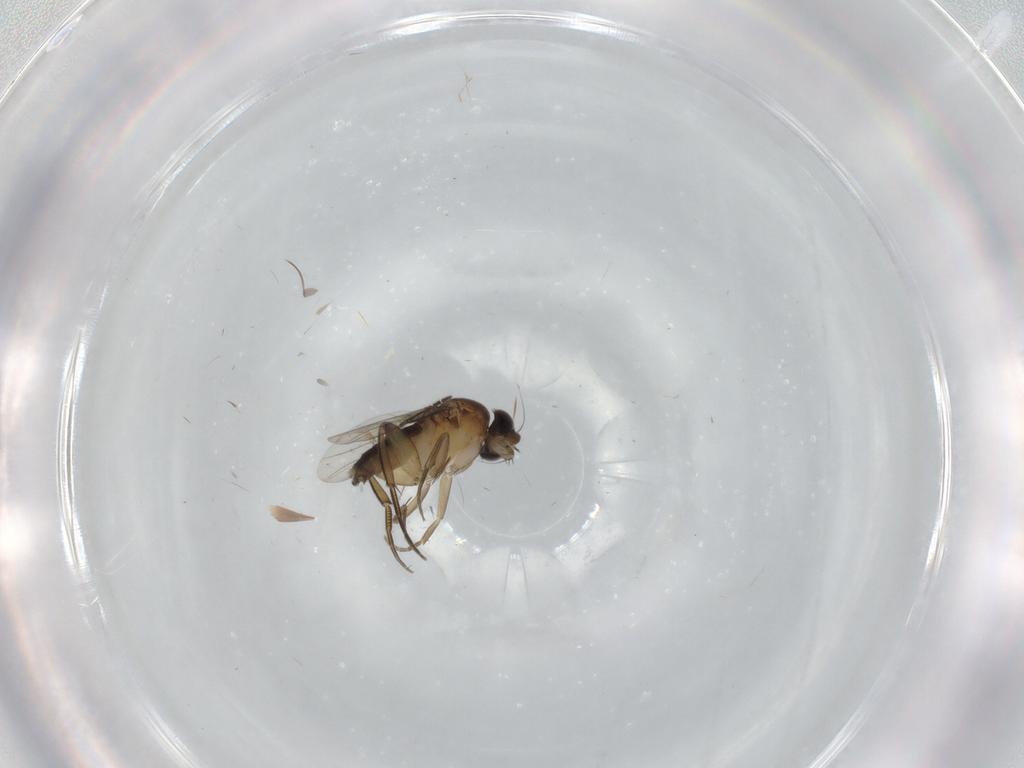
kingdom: Animalia
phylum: Arthropoda
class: Insecta
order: Diptera
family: Phoridae
